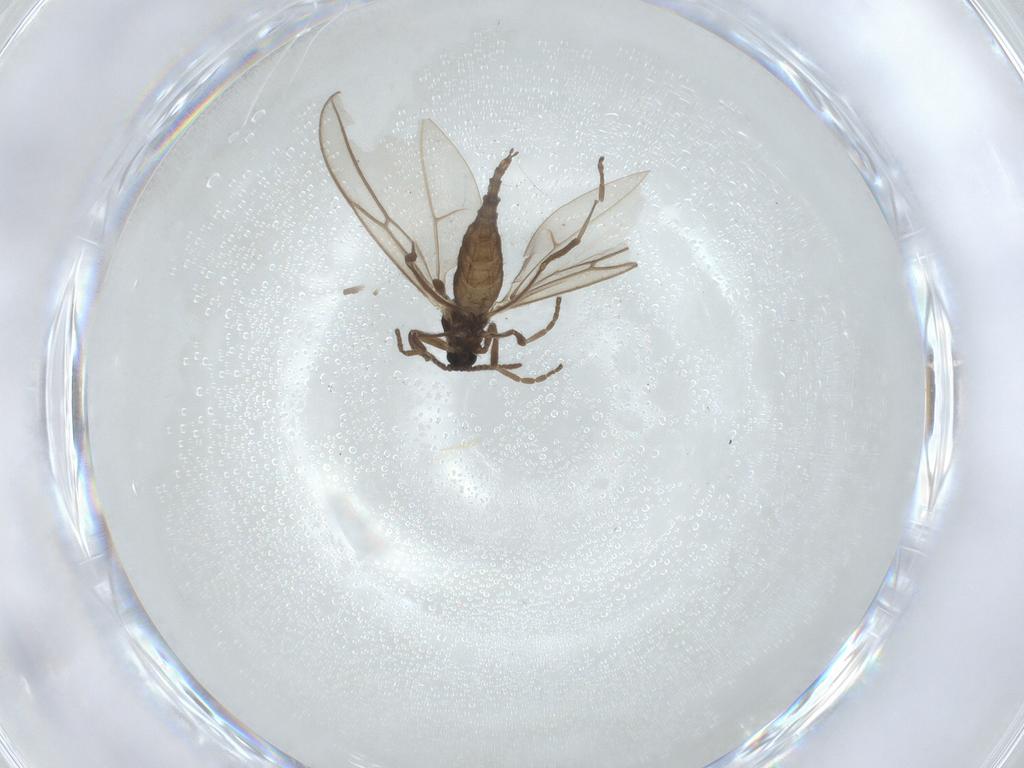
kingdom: Animalia
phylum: Arthropoda
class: Insecta
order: Diptera
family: Cecidomyiidae
